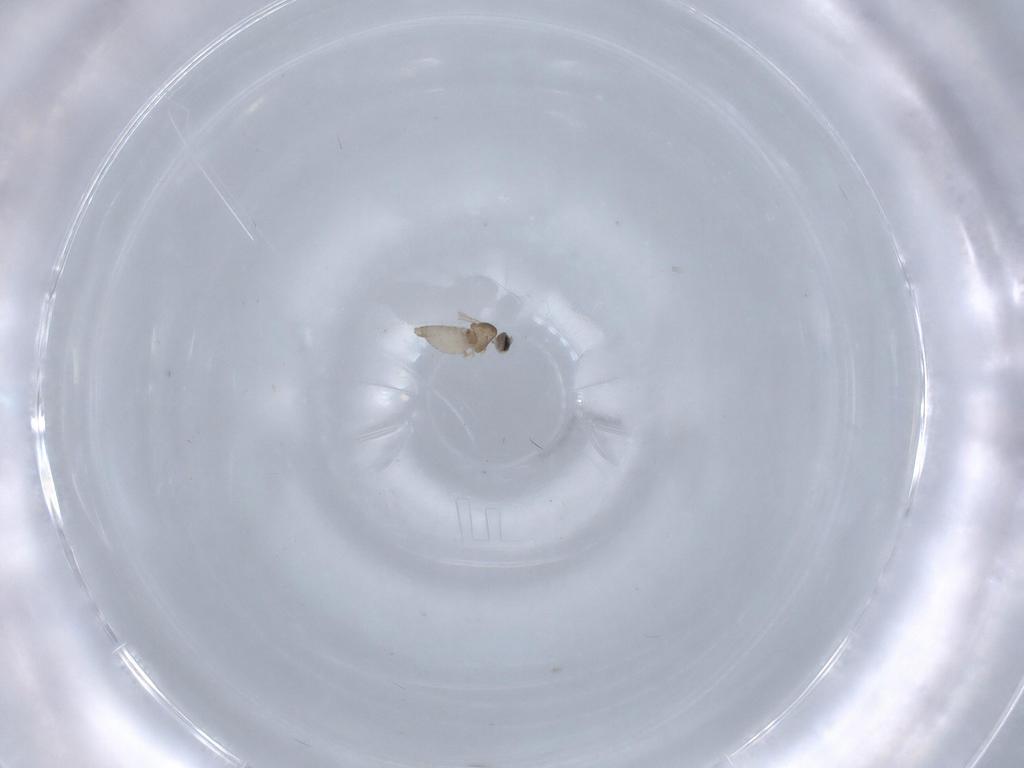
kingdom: Animalia
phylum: Arthropoda
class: Insecta
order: Diptera
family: Cecidomyiidae
